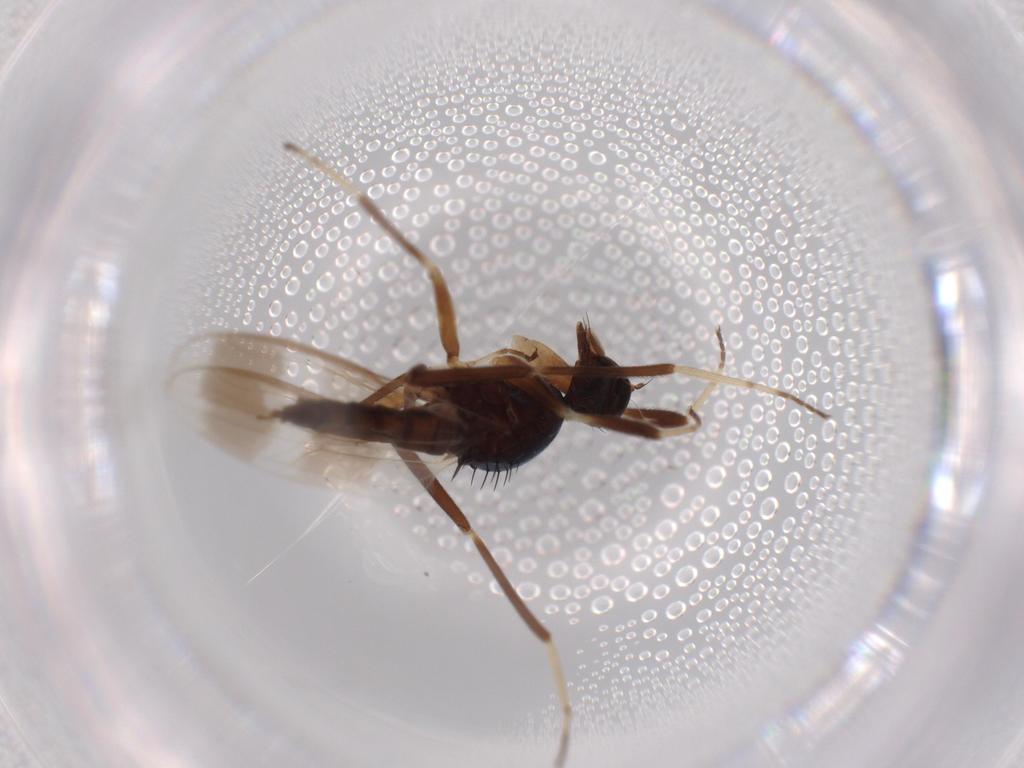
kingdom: Animalia
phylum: Arthropoda
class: Insecta
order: Diptera
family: Hybotidae
